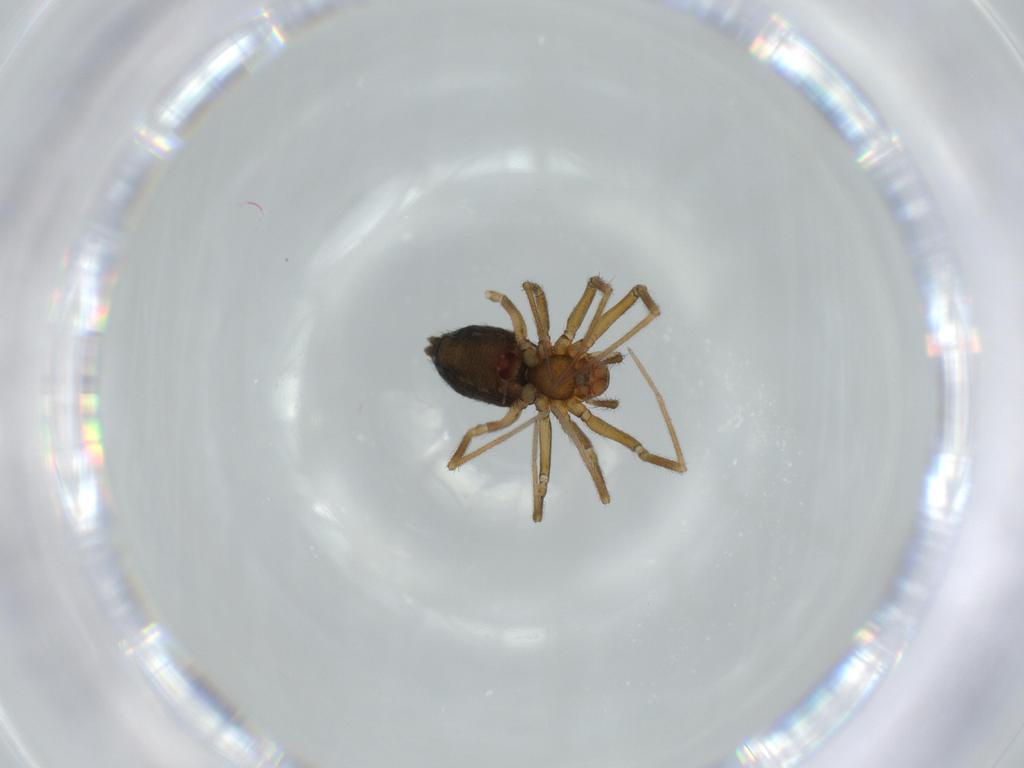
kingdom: Animalia
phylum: Arthropoda
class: Arachnida
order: Araneae
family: Linyphiidae
